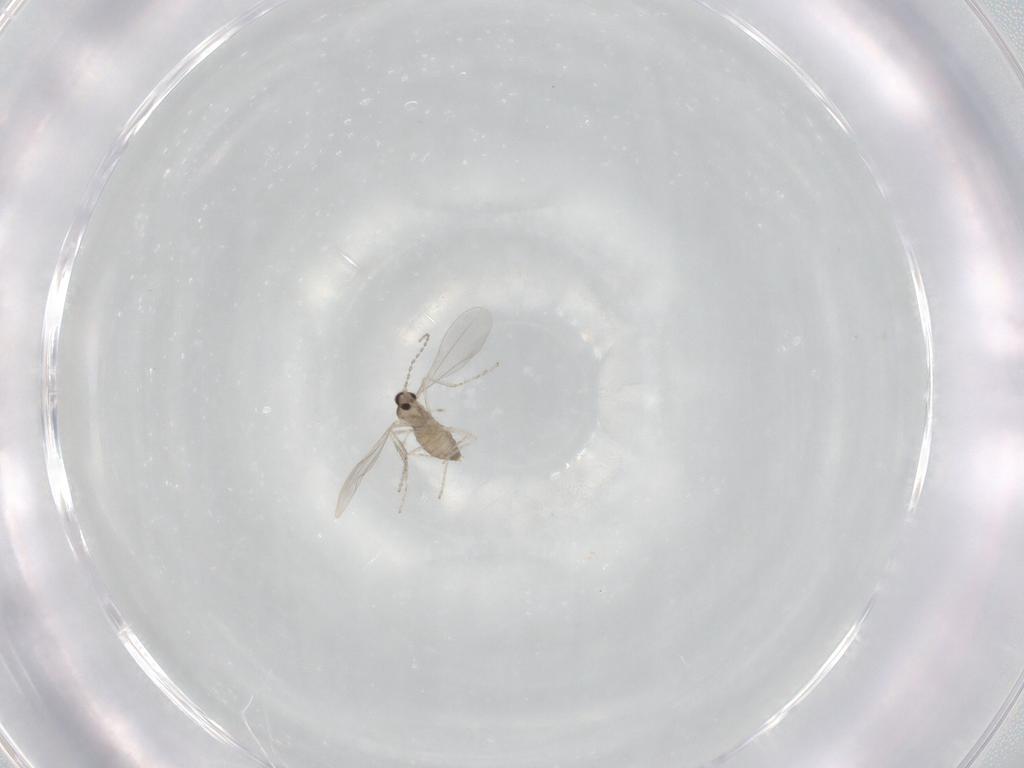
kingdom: Animalia
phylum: Arthropoda
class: Insecta
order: Diptera
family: Cecidomyiidae
